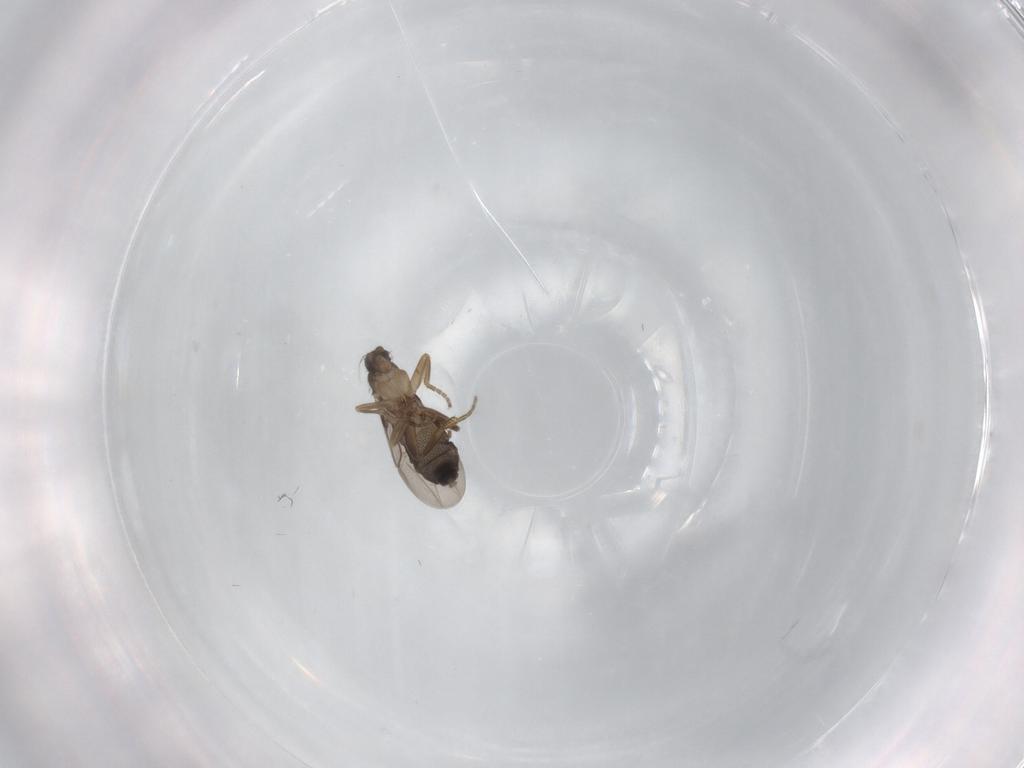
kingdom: Animalia
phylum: Arthropoda
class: Insecta
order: Diptera
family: Phoridae
